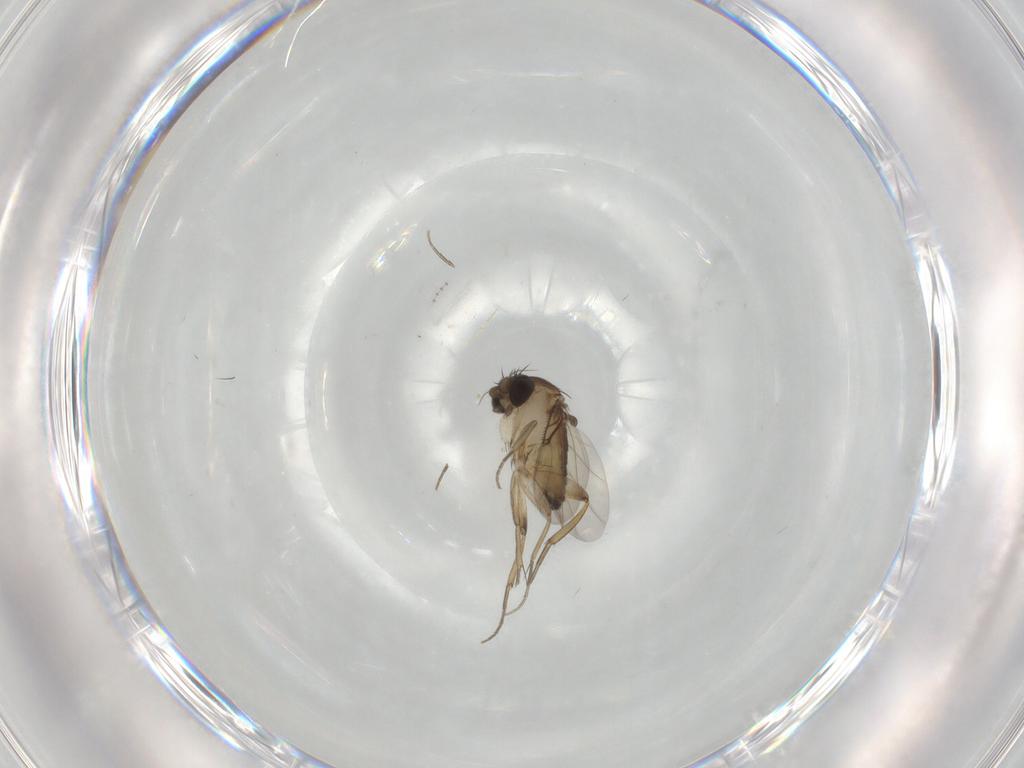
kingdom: Animalia
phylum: Arthropoda
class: Insecta
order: Diptera
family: Phoridae
